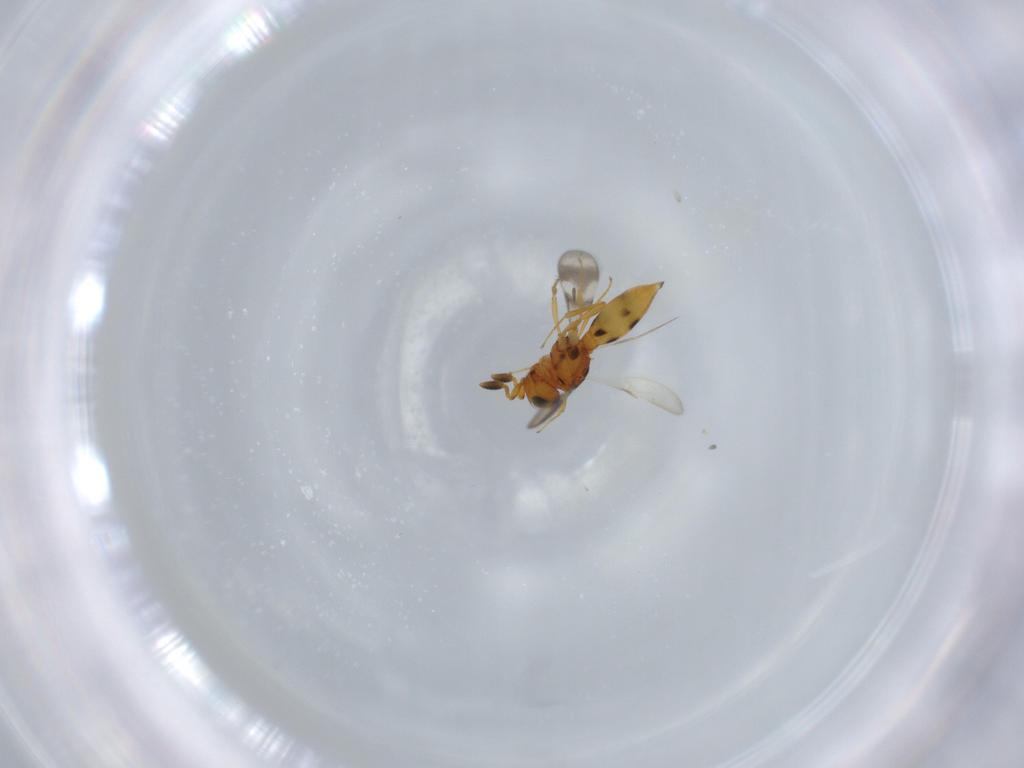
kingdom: Animalia
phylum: Arthropoda
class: Insecta
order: Hymenoptera
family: Scelionidae
